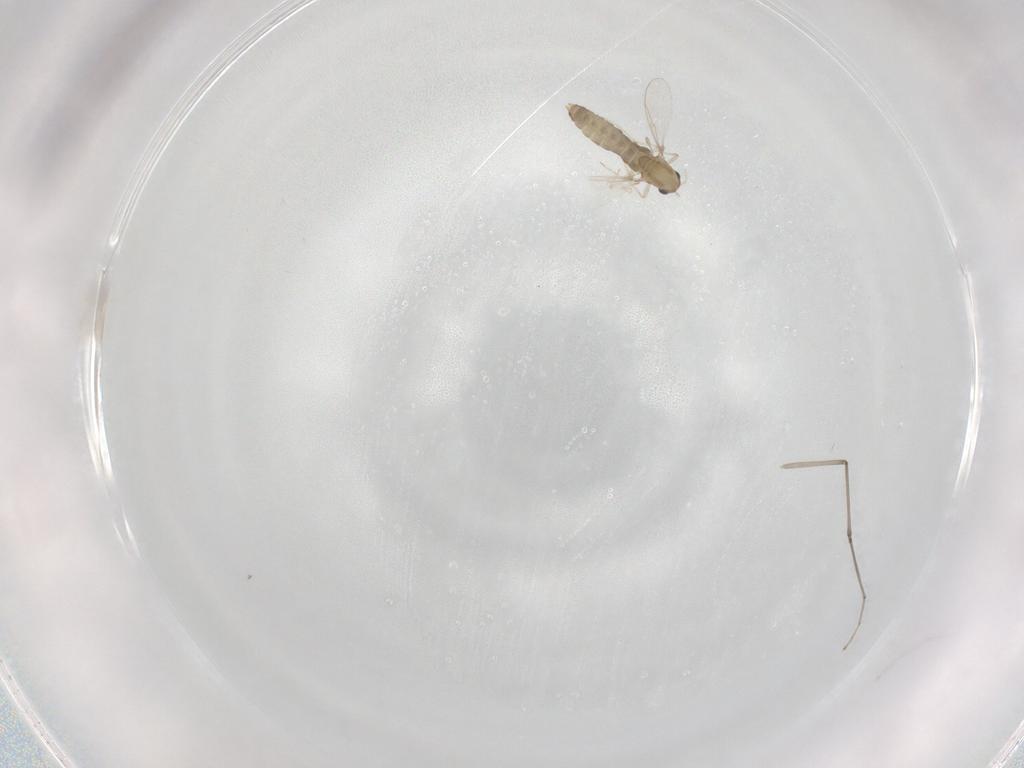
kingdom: Animalia
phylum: Arthropoda
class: Insecta
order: Diptera
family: Chironomidae
